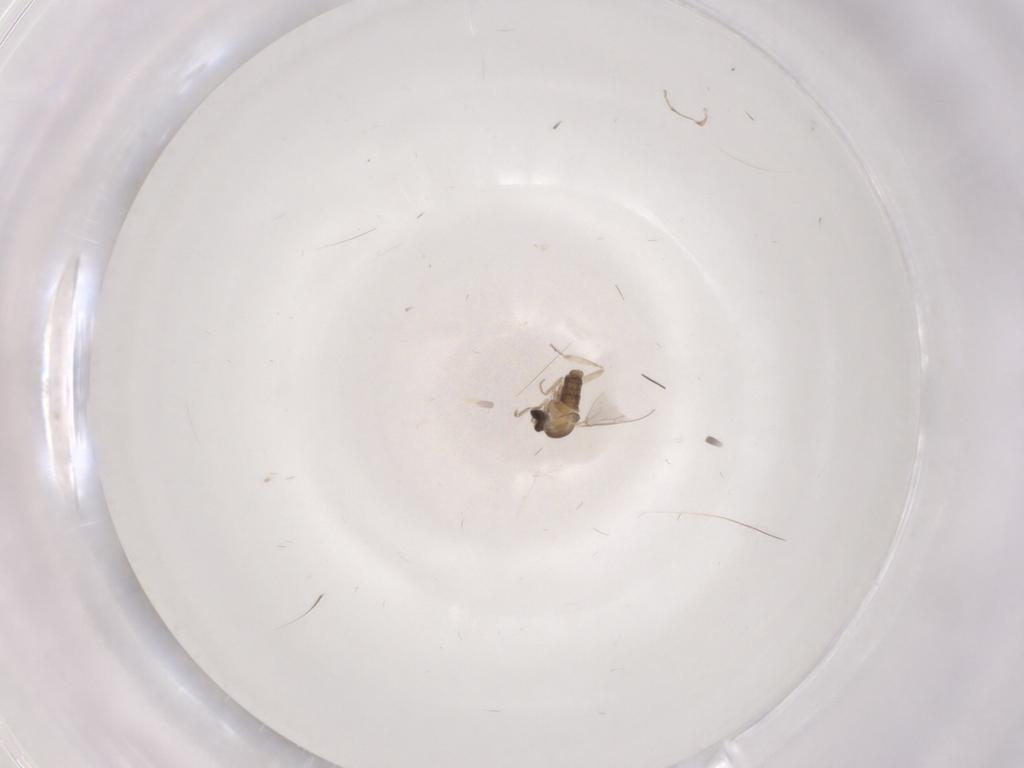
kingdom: Animalia
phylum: Arthropoda
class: Insecta
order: Diptera
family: Cecidomyiidae
